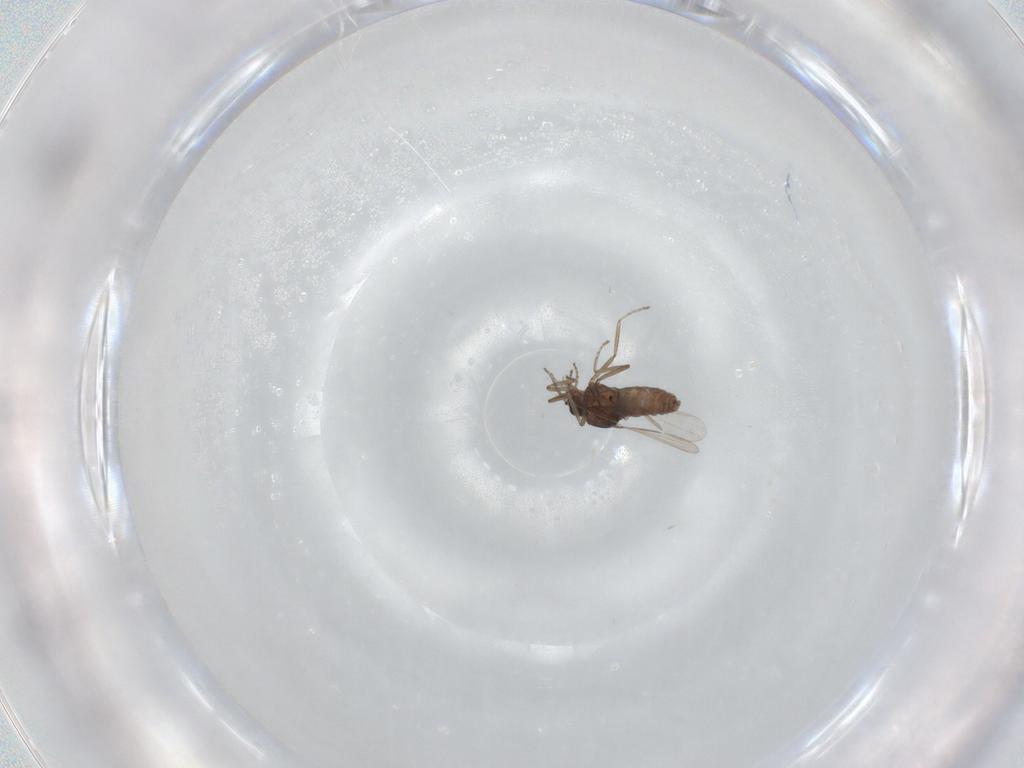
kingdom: Animalia
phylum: Arthropoda
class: Insecta
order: Diptera
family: Ceratopogonidae
